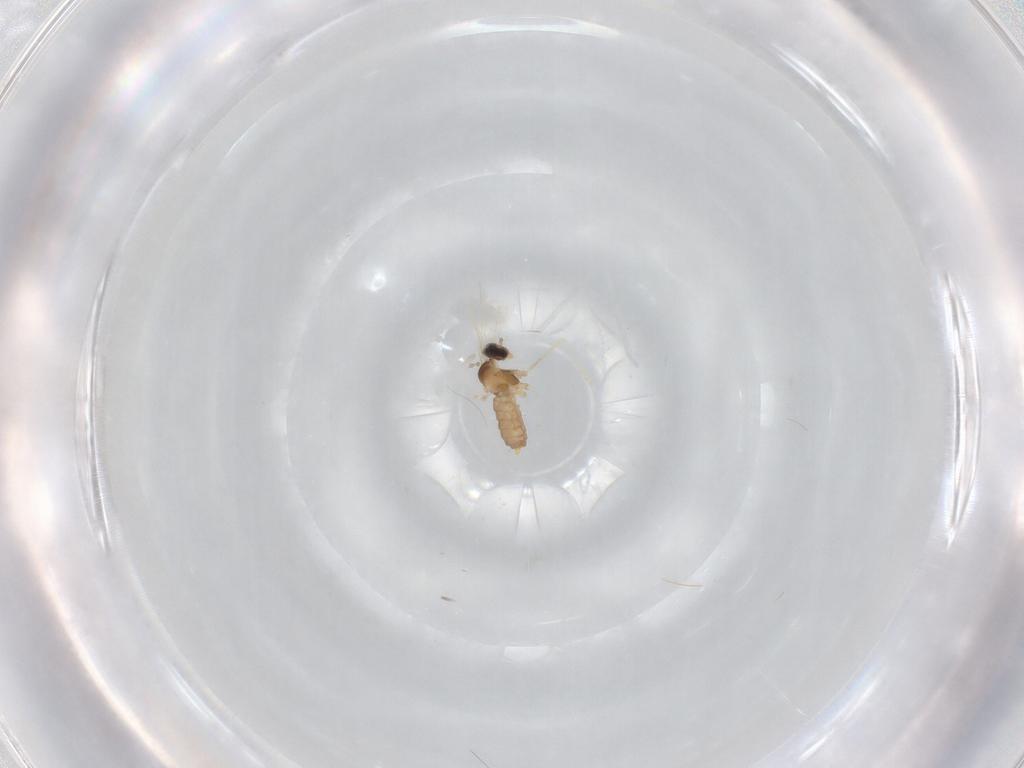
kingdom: Animalia
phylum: Arthropoda
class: Insecta
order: Diptera
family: Cecidomyiidae
